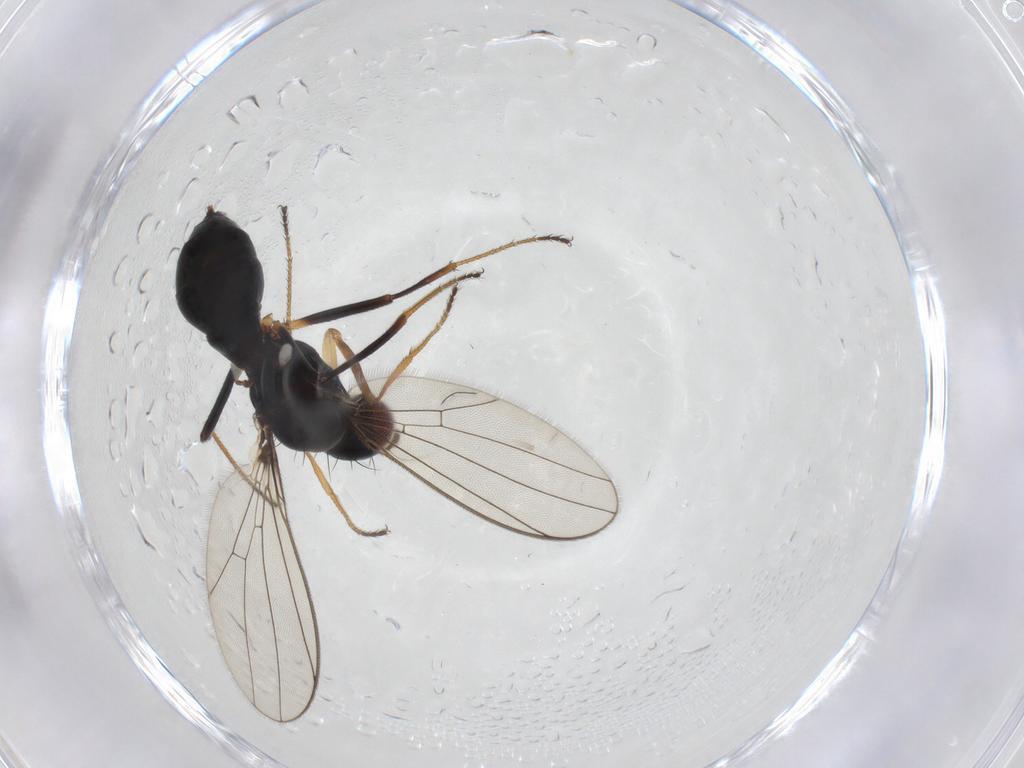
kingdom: Animalia
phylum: Arthropoda
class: Insecta
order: Diptera
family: Sepsidae
